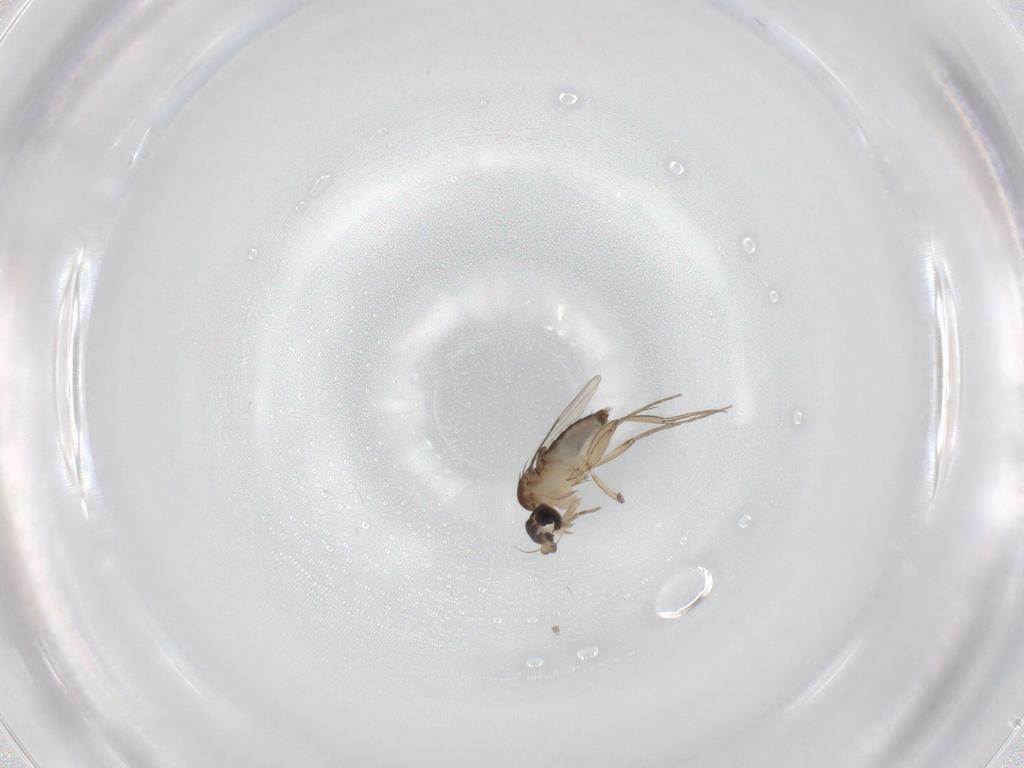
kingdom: Animalia
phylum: Arthropoda
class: Insecta
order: Diptera
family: Phoridae
